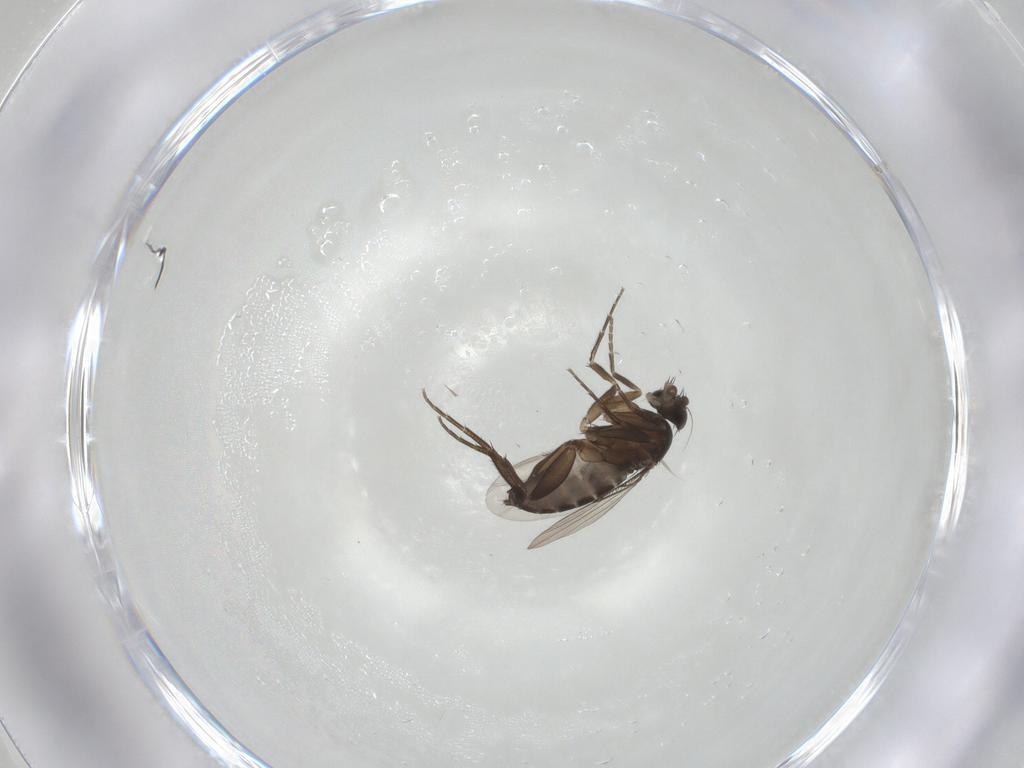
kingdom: Animalia
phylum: Arthropoda
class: Insecta
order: Diptera
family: Phoridae
